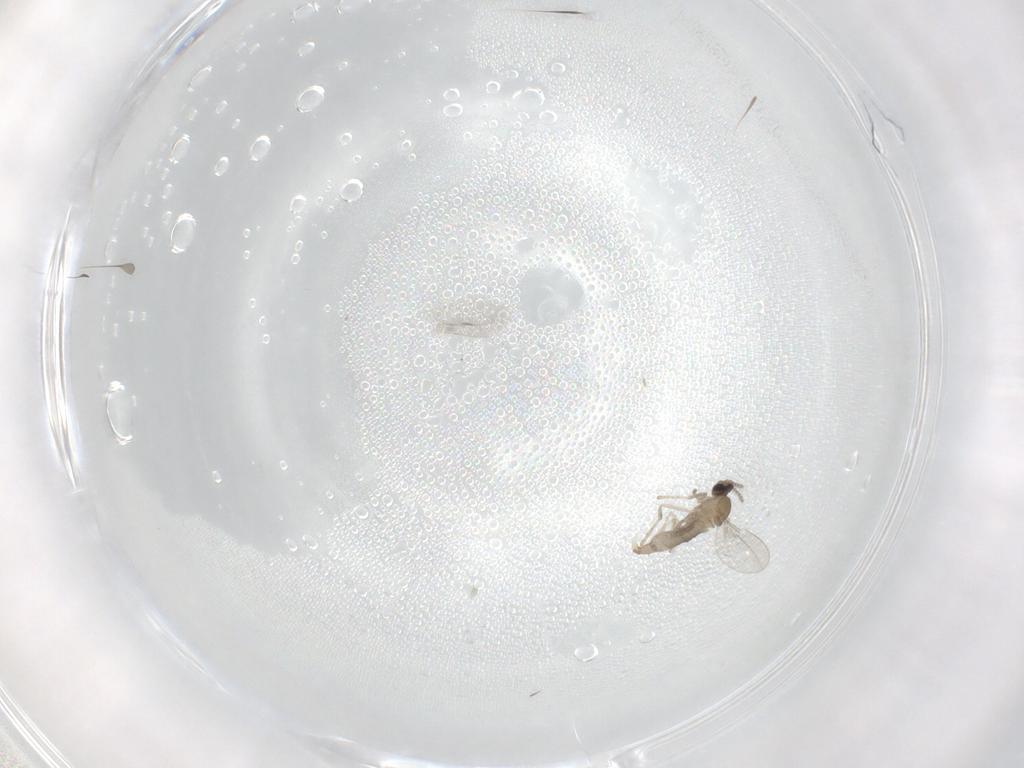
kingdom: Animalia
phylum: Arthropoda
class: Insecta
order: Diptera
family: Cecidomyiidae
